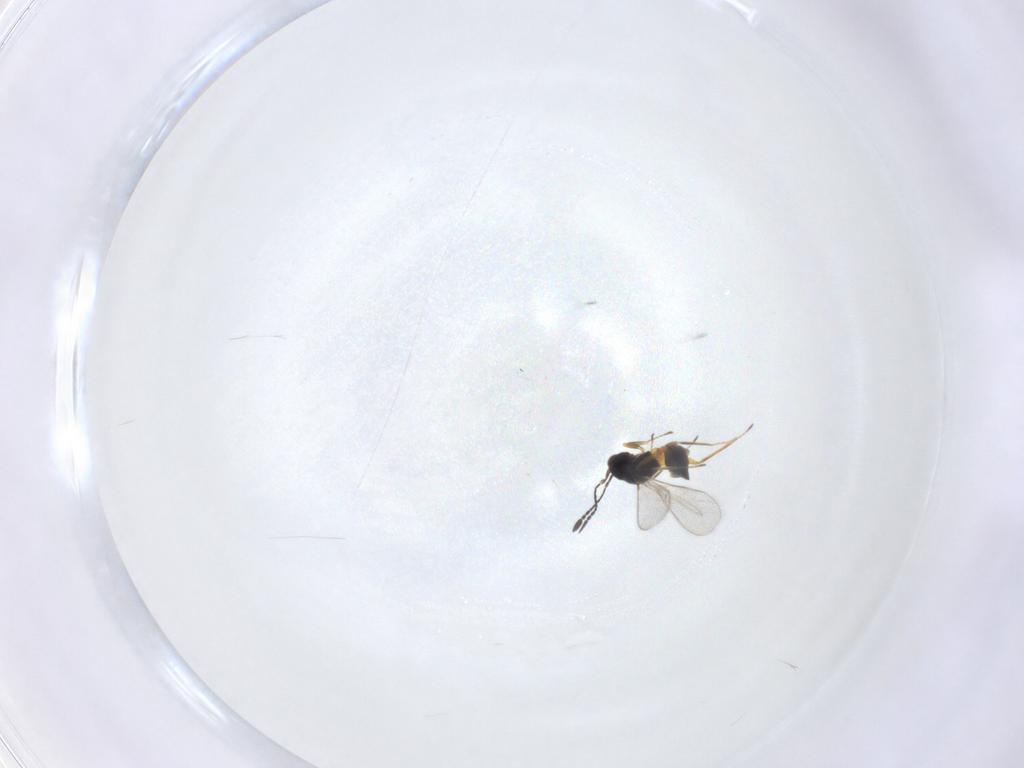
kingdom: Animalia
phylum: Arthropoda
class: Insecta
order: Hymenoptera
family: Mymaridae
